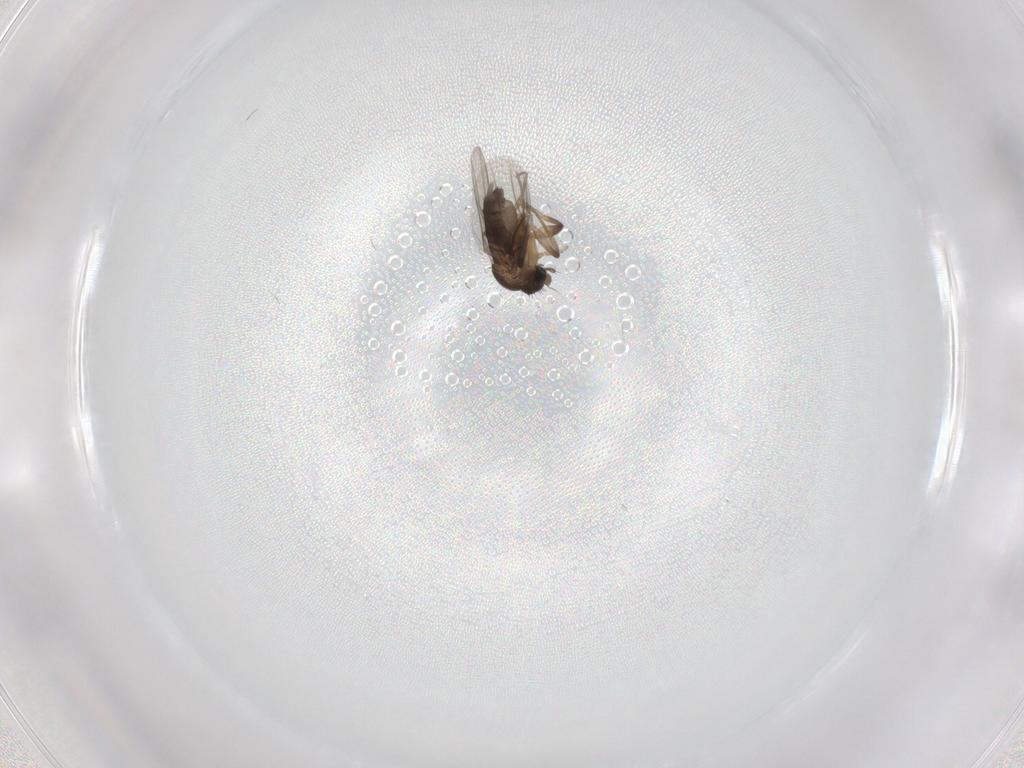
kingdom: Animalia
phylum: Arthropoda
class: Insecta
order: Diptera
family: Phoridae
